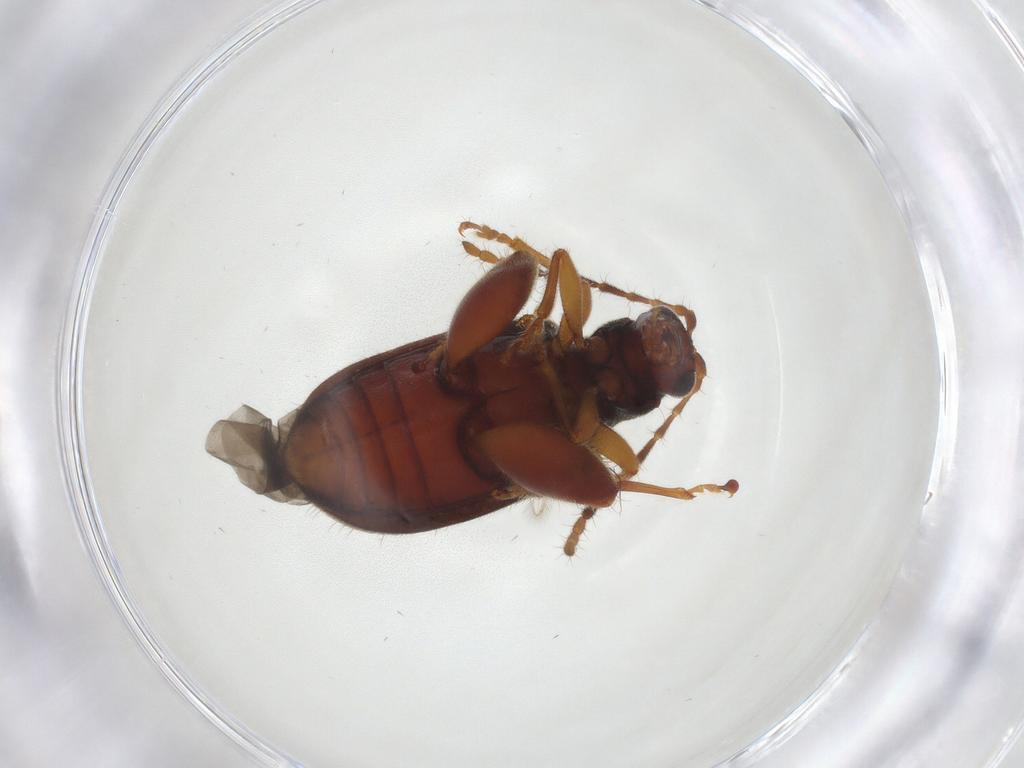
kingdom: Animalia
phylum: Arthropoda
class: Insecta
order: Coleoptera
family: Chrysomelidae
